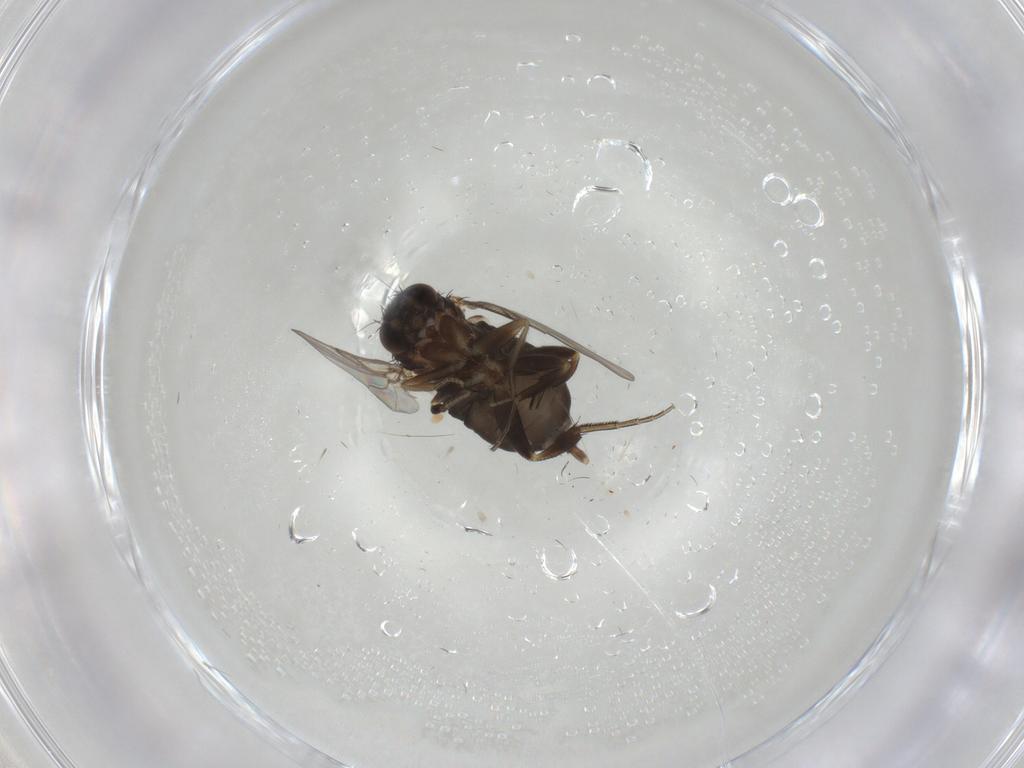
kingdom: Animalia
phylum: Arthropoda
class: Insecta
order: Diptera
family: Phoridae
